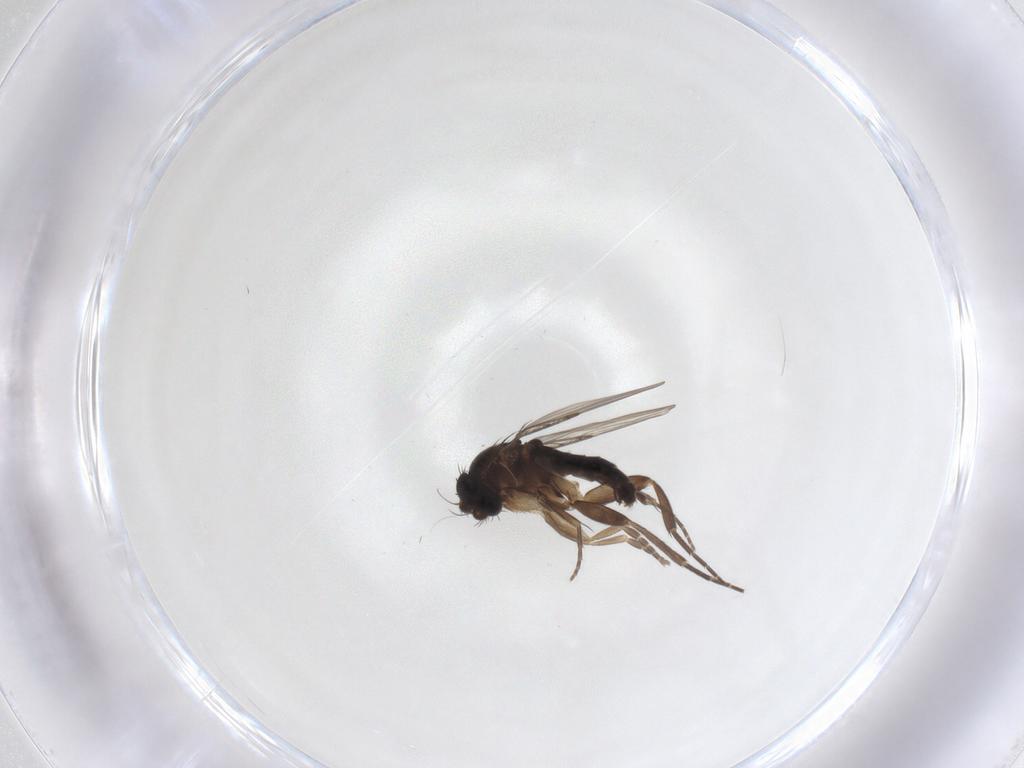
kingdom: Animalia
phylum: Arthropoda
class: Insecta
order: Diptera
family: Phoridae
